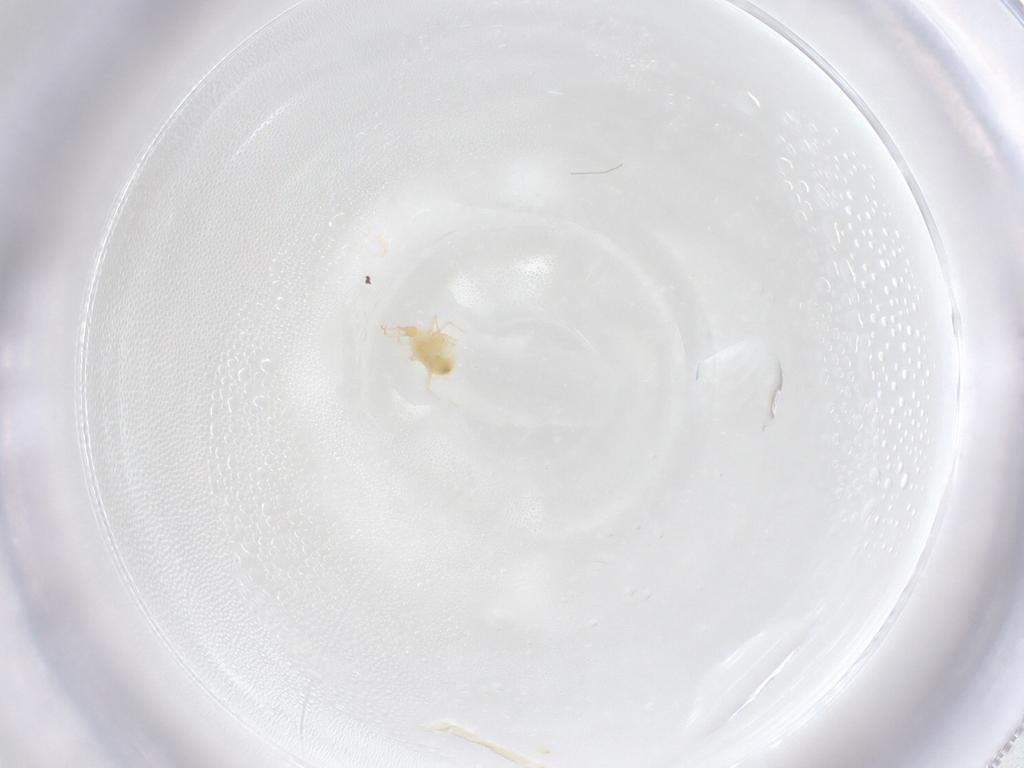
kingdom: Animalia
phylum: Arthropoda
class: Arachnida
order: Trombidiformes
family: Cunaxidae
